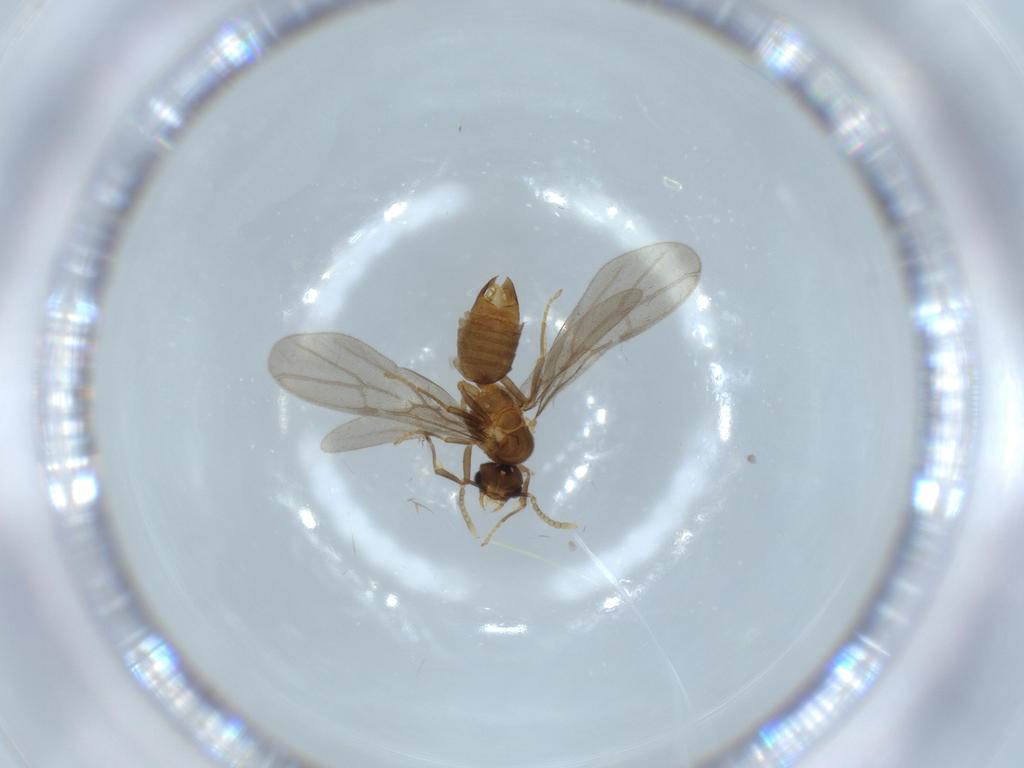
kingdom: Animalia
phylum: Arthropoda
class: Insecta
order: Hymenoptera
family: Formicidae
